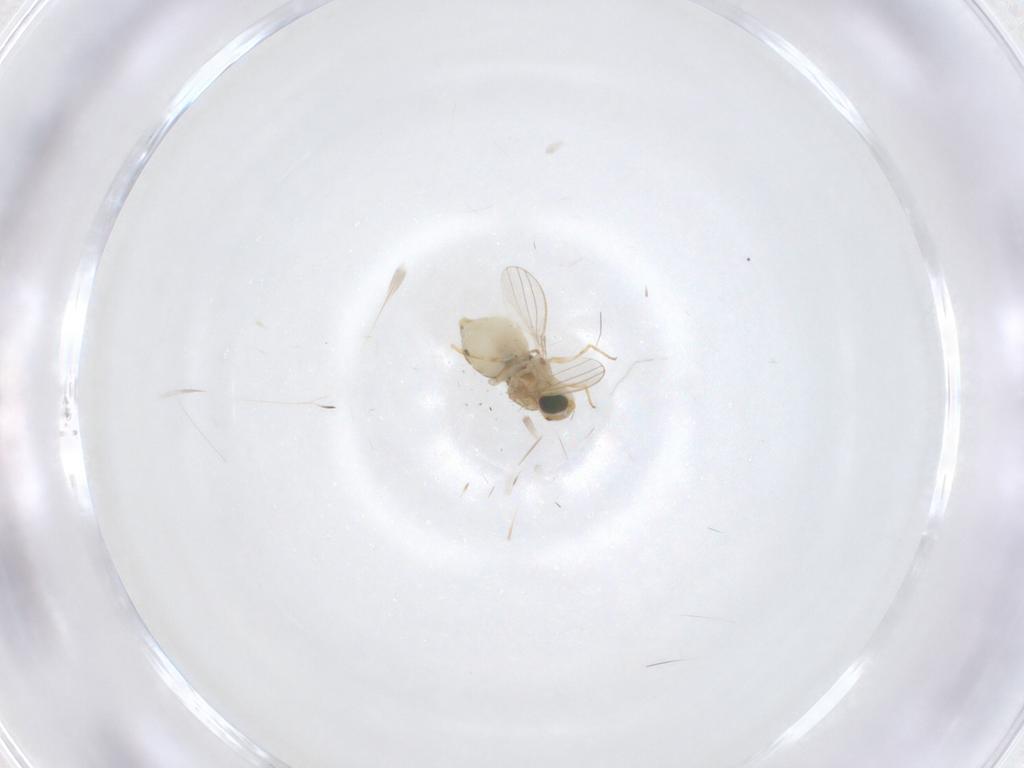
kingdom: Animalia
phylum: Arthropoda
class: Insecta
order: Diptera
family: Chyromyidae
